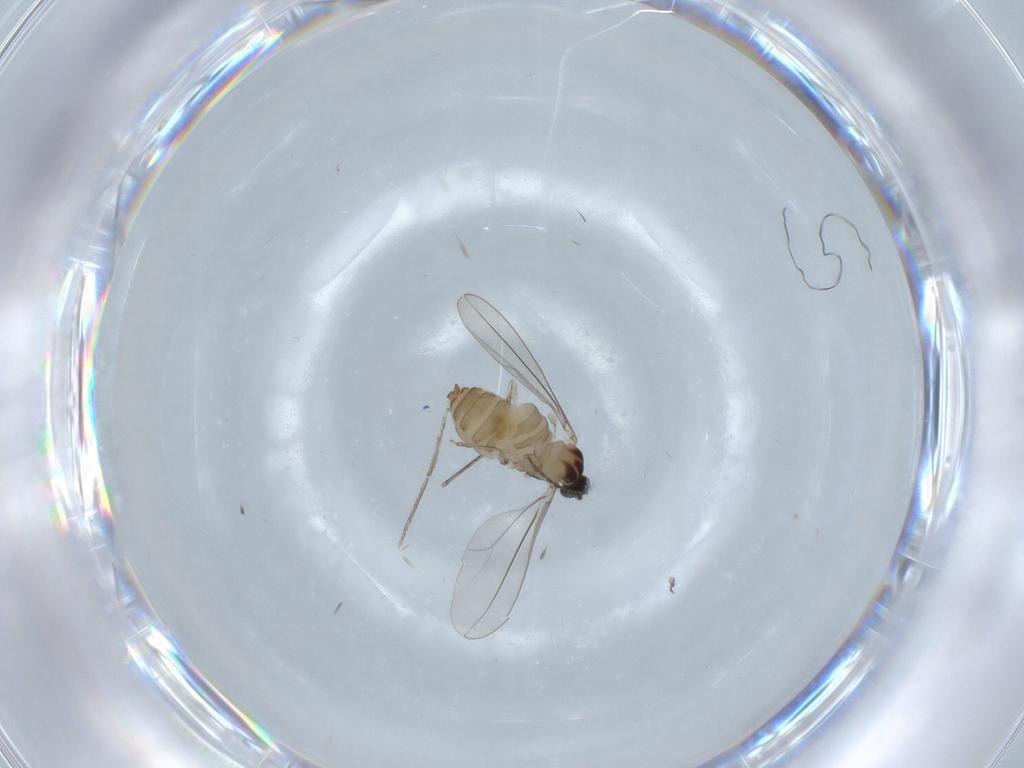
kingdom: Animalia
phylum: Arthropoda
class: Insecta
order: Diptera
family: Cecidomyiidae
